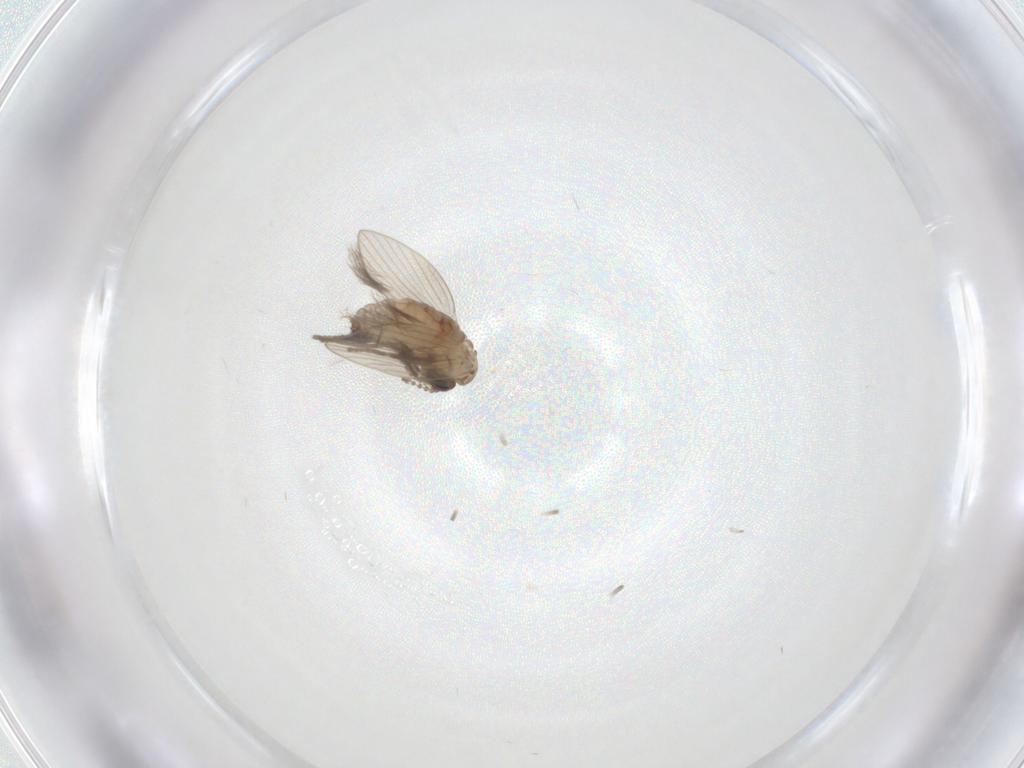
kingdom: Animalia
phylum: Arthropoda
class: Insecta
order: Diptera
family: Psychodidae
